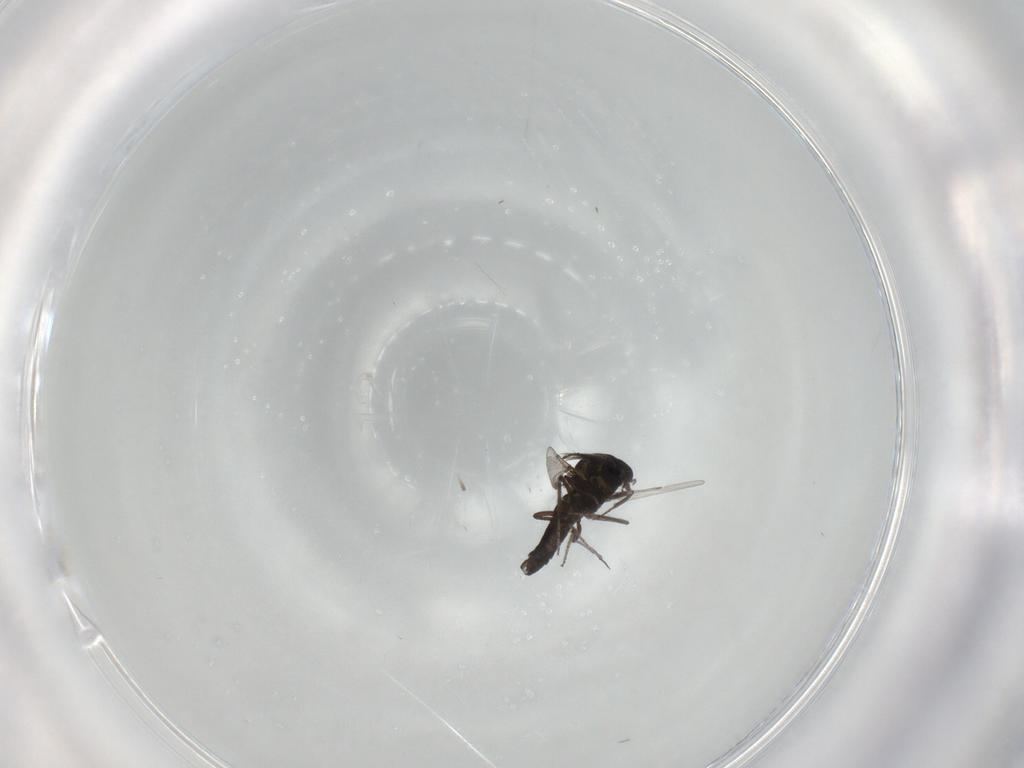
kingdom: Animalia
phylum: Arthropoda
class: Insecta
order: Diptera
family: Ceratopogonidae
